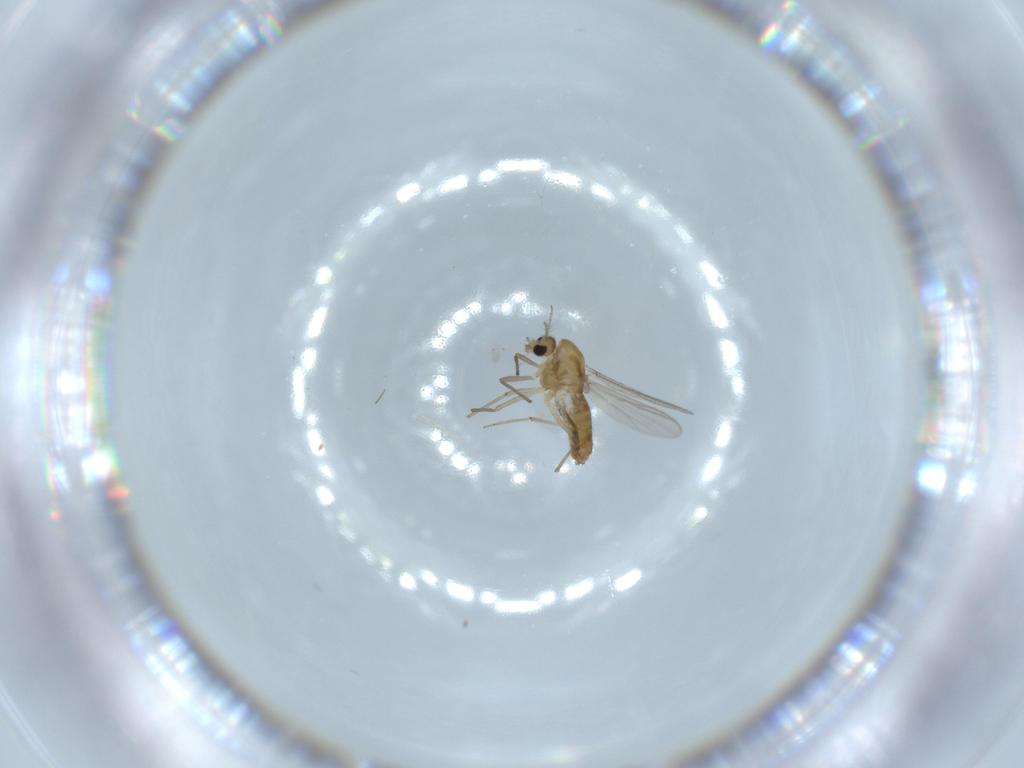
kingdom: Animalia
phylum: Arthropoda
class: Insecta
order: Diptera
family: Chironomidae
